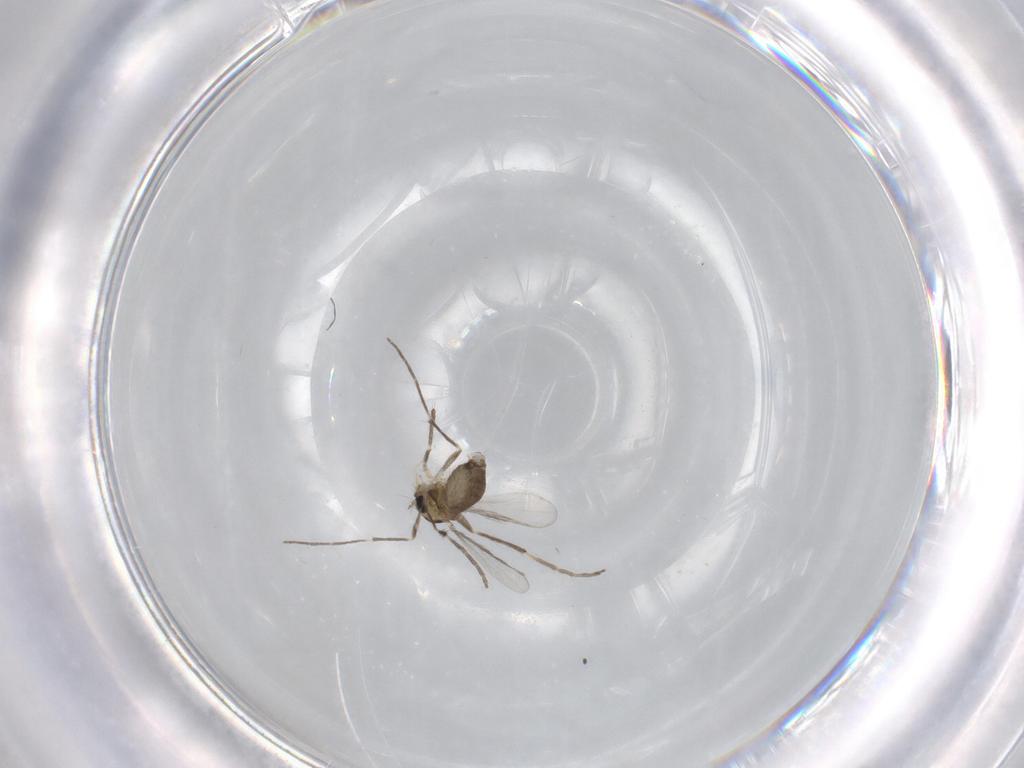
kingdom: Animalia
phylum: Arthropoda
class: Insecta
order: Diptera
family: Chironomidae
